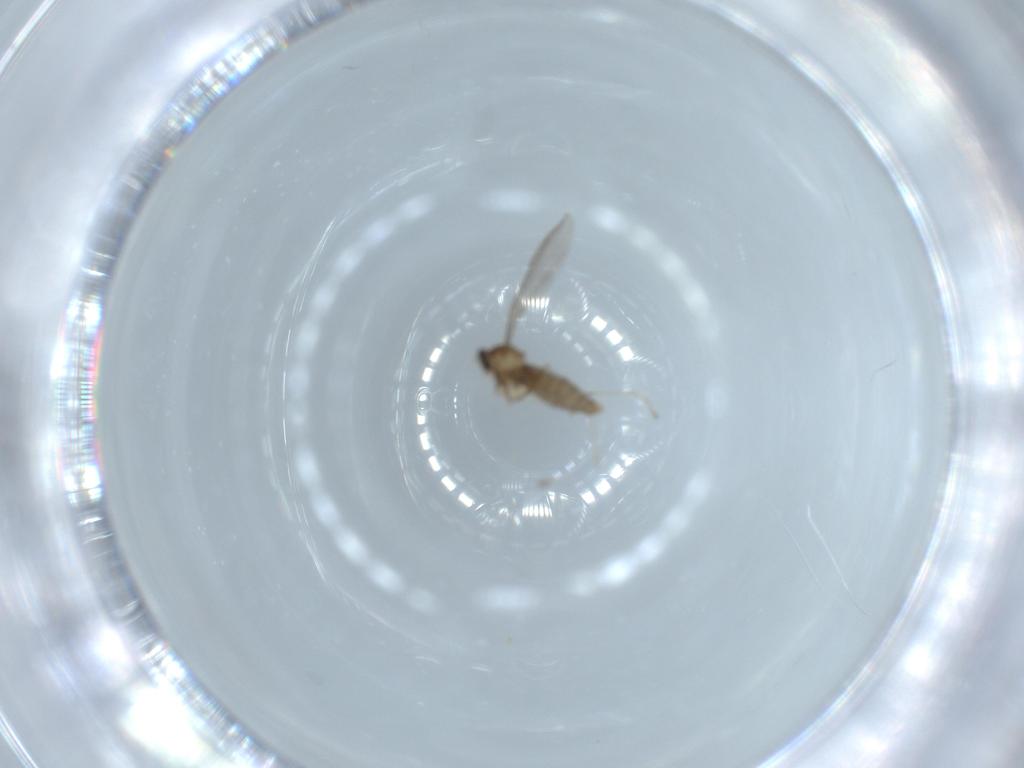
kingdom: Animalia
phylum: Arthropoda
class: Insecta
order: Diptera
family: Cecidomyiidae
